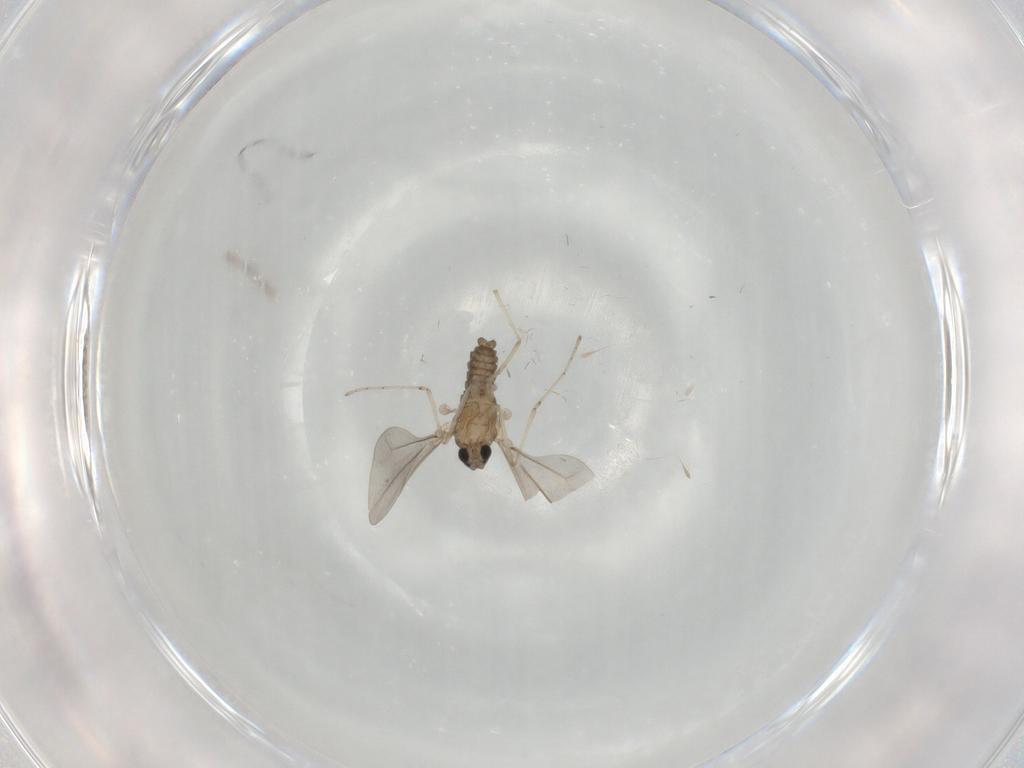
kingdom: Animalia
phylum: Arthropoda
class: Insecta
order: Diptera
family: Cecidomyiidae
